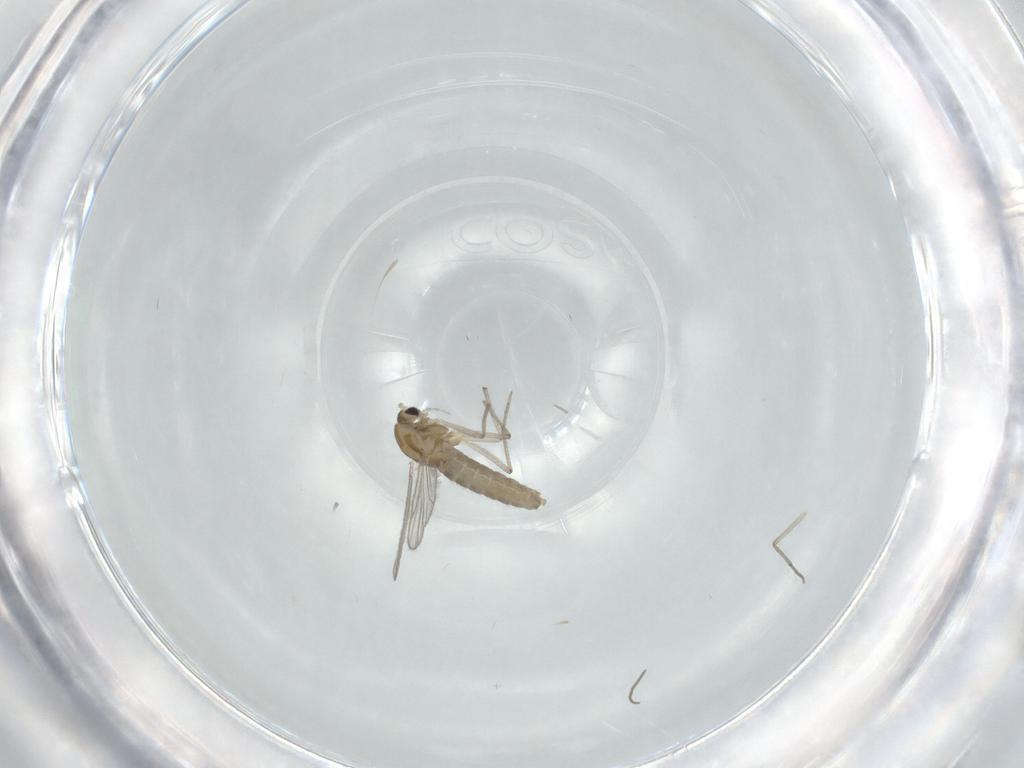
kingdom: Animalia
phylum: Arthropoda
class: Insecta
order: Diptera
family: Chironomidae
